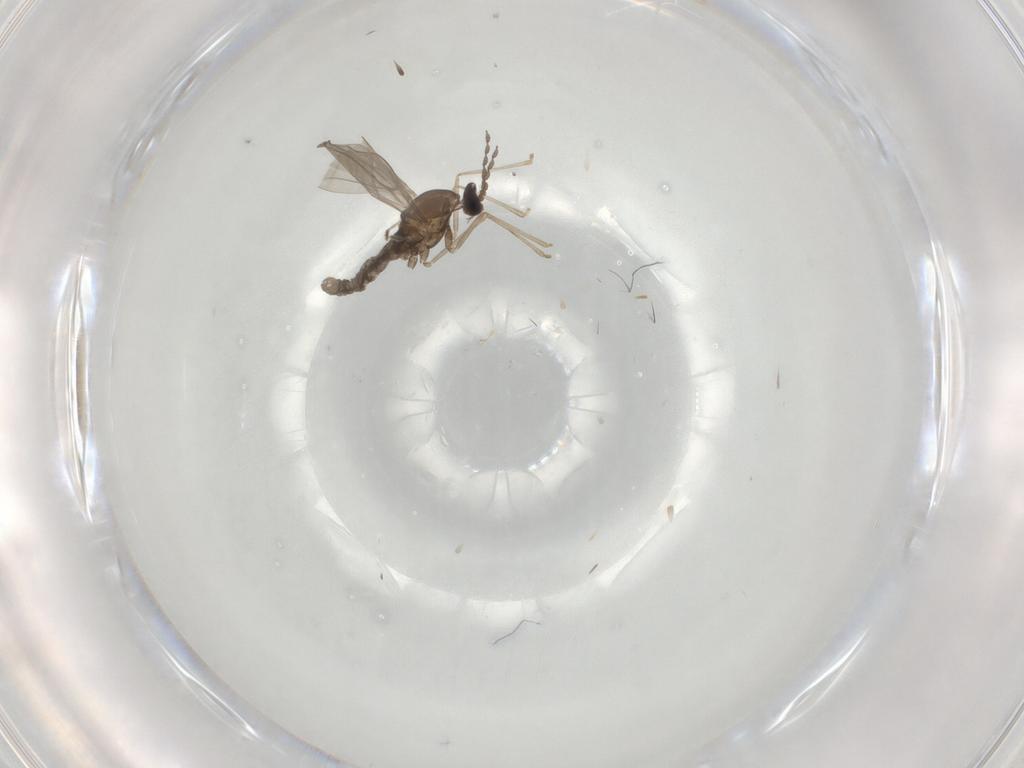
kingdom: Animalia
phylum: Arthropoda
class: Insecta
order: Diptera
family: Cecidomyiidae
